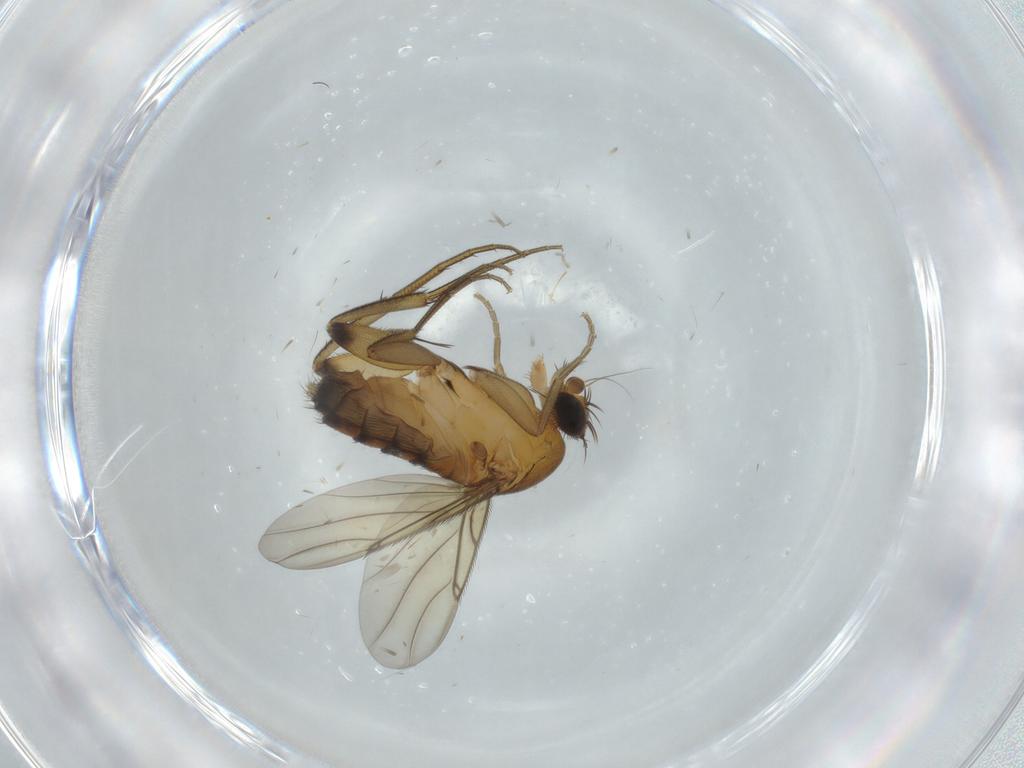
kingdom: Animalia
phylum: Arthropoda
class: Insecta
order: Diptera
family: Phoridae
